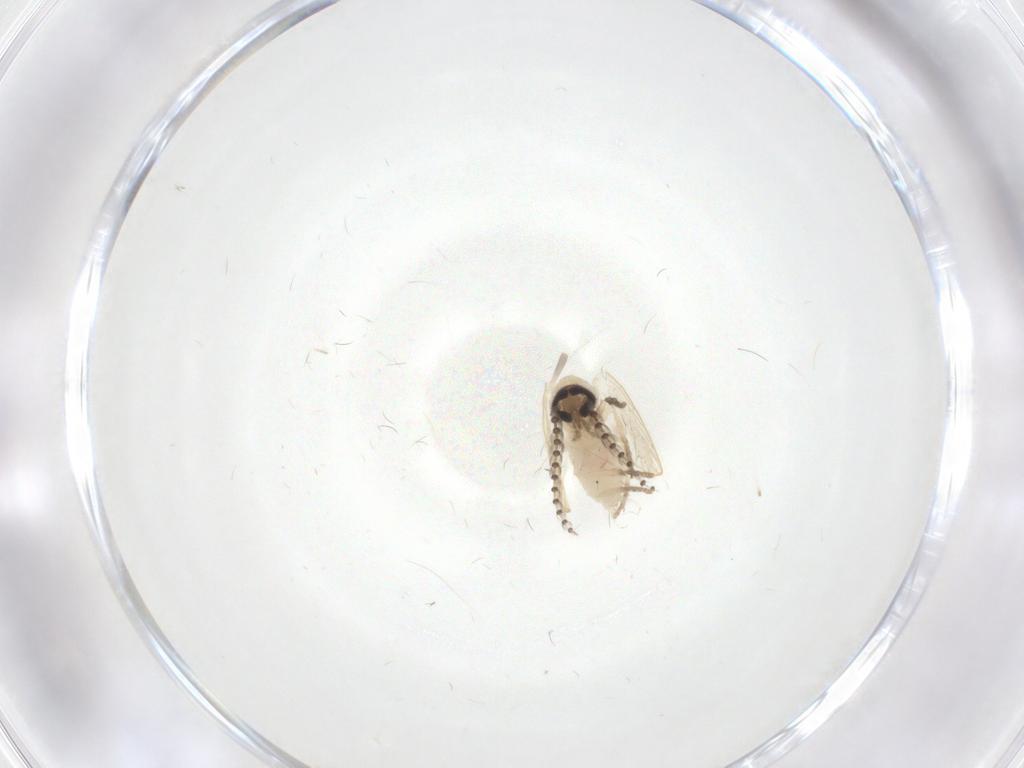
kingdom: Animalia
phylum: Arthropoda
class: Insecta
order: Diptera
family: Psychodidae
